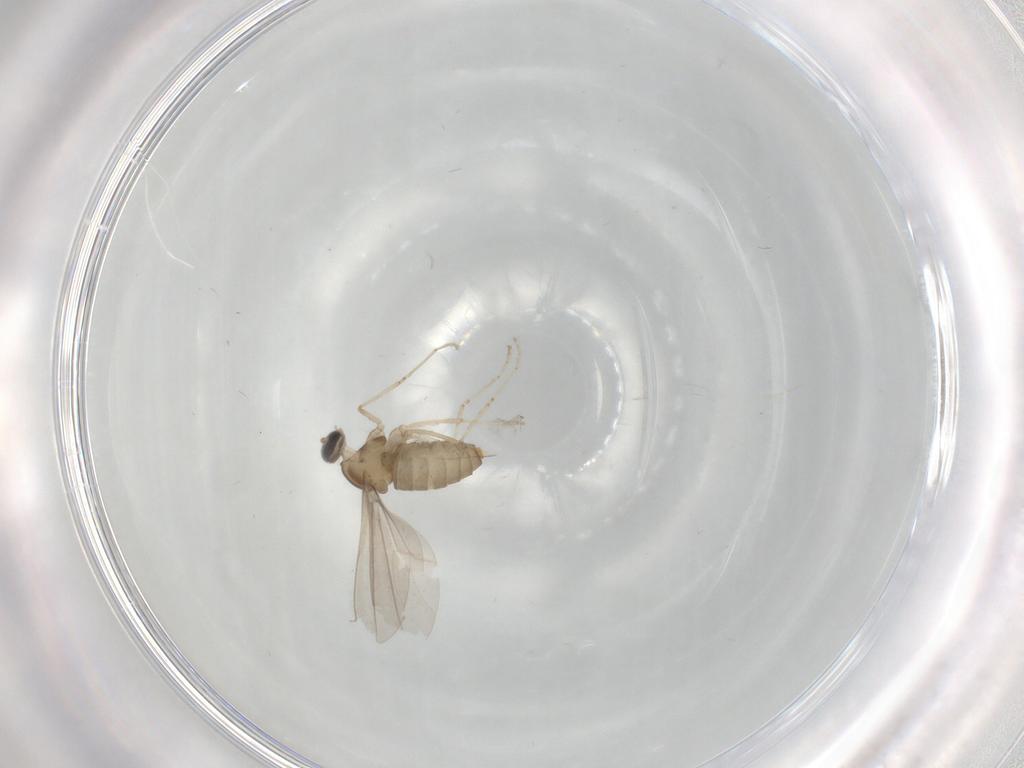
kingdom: Animalia
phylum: Arthropoda
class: Insecta
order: Diptera
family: Cecidomyiidae
